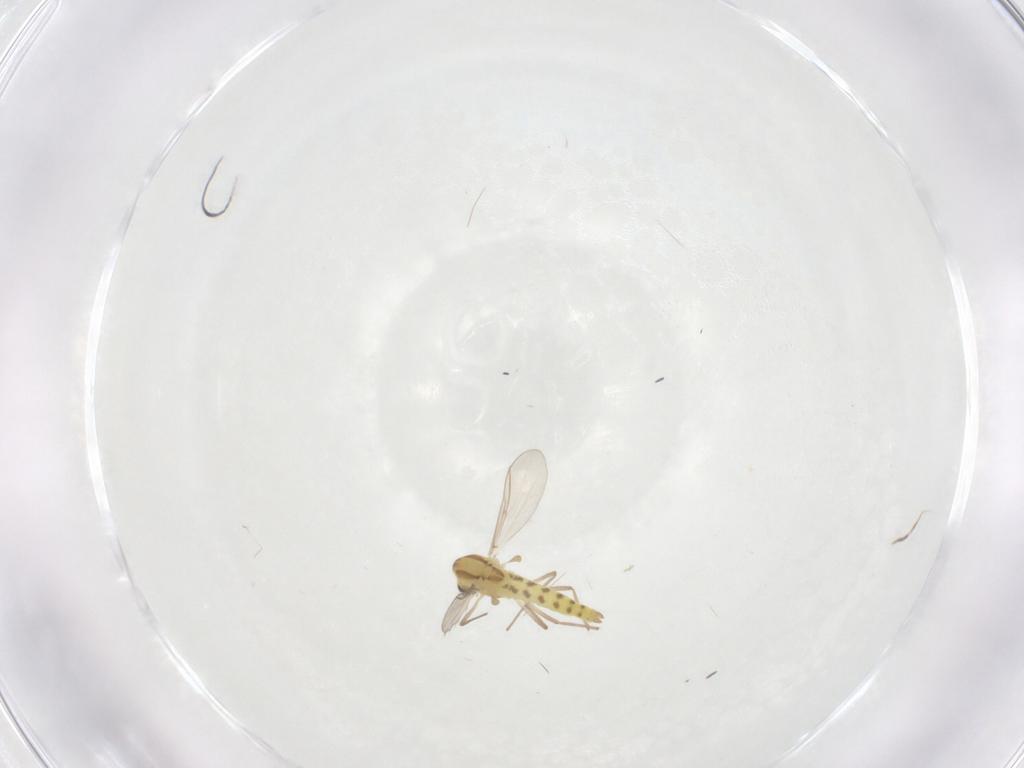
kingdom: Animalia
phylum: Arthropoda
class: Insecta
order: Diptera
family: Chironomidae
